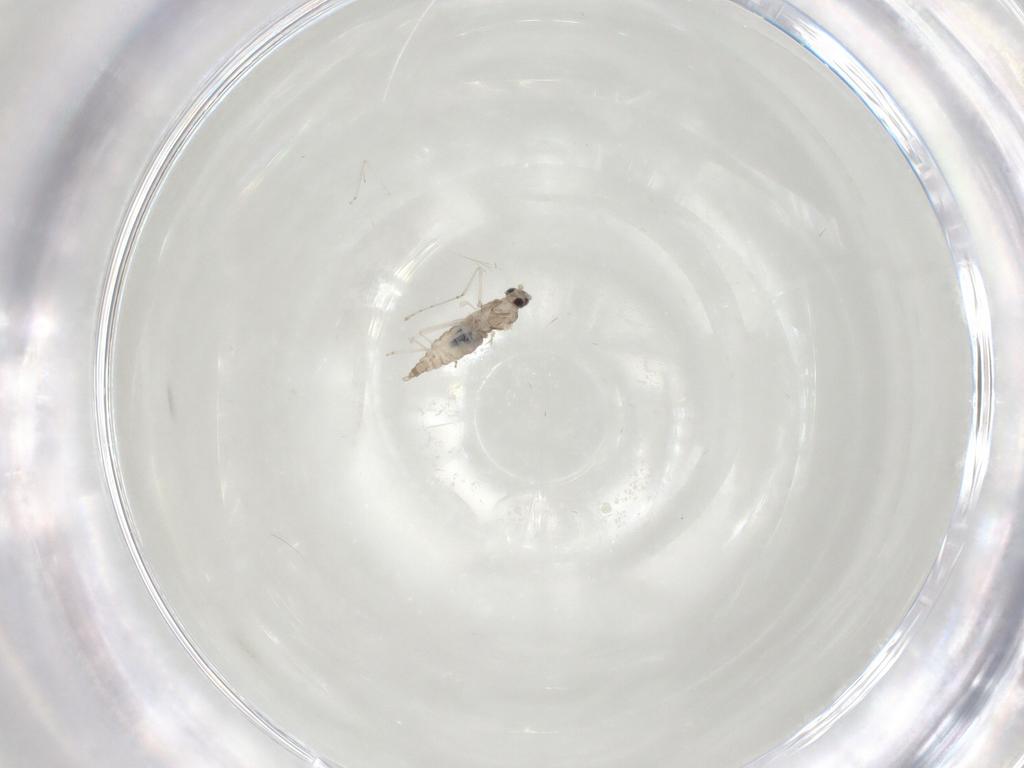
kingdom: Animalia
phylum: Arthropoda
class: Insecta
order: Diptera
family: Cecidomyiidae
